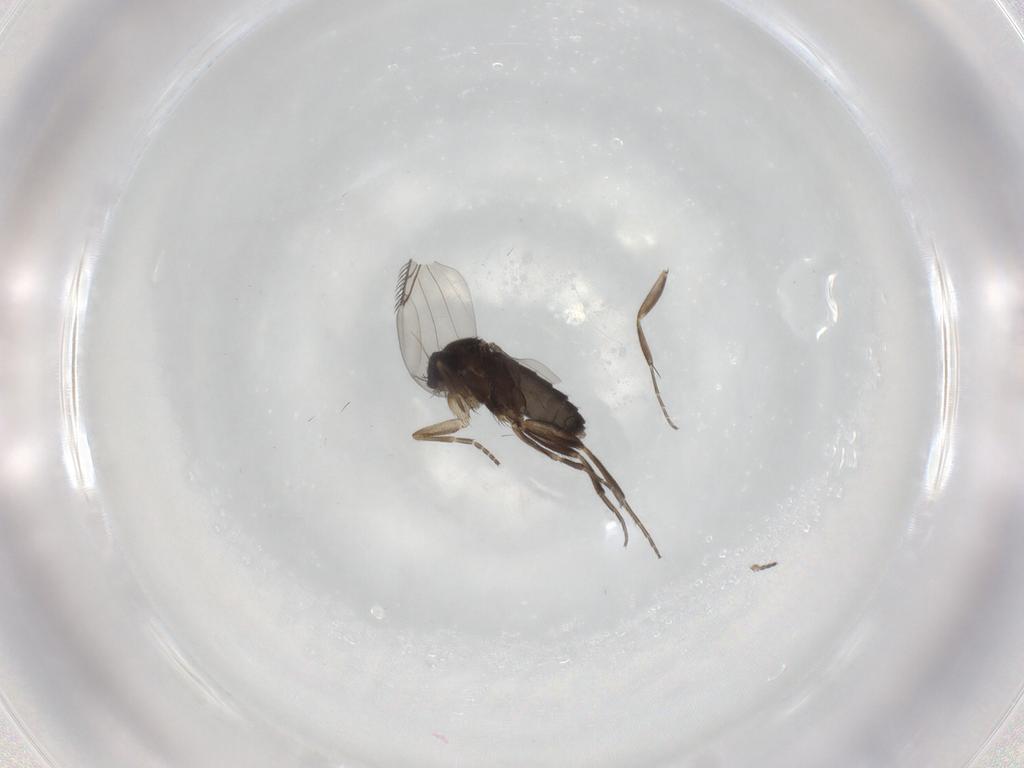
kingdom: Animalia
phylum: Arthropoda
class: Insecta
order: Diptera
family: Phoridae
